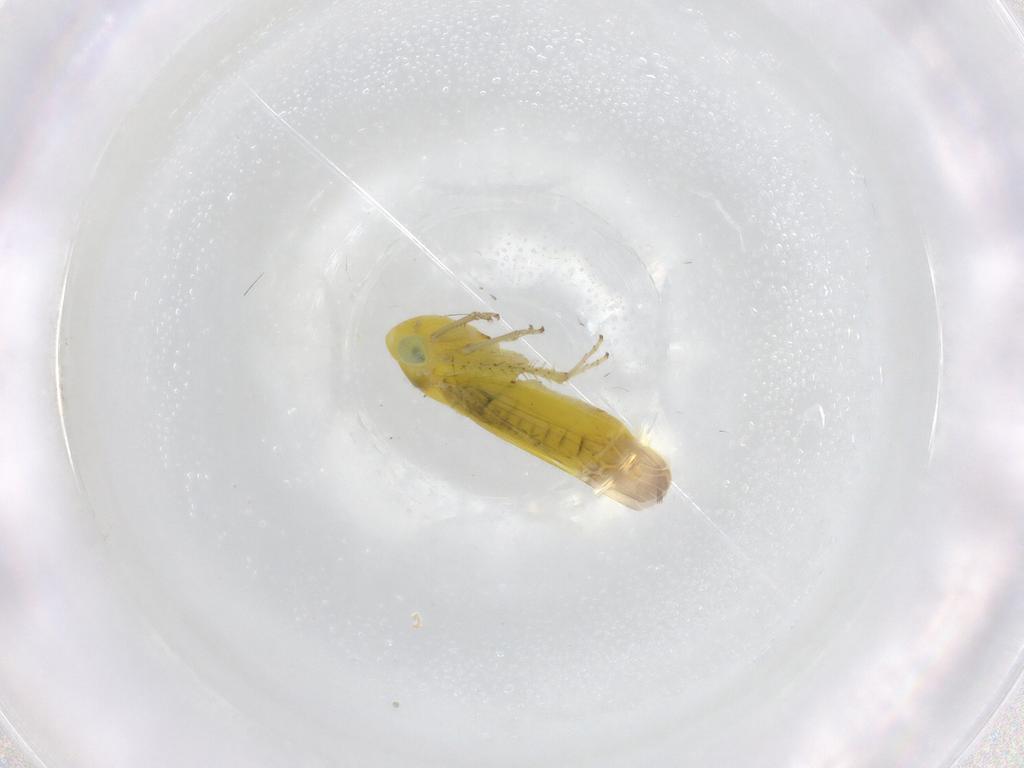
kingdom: Animalia
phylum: Arthropoda
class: Insecta
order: Hemiptera
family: Cicadellidae
